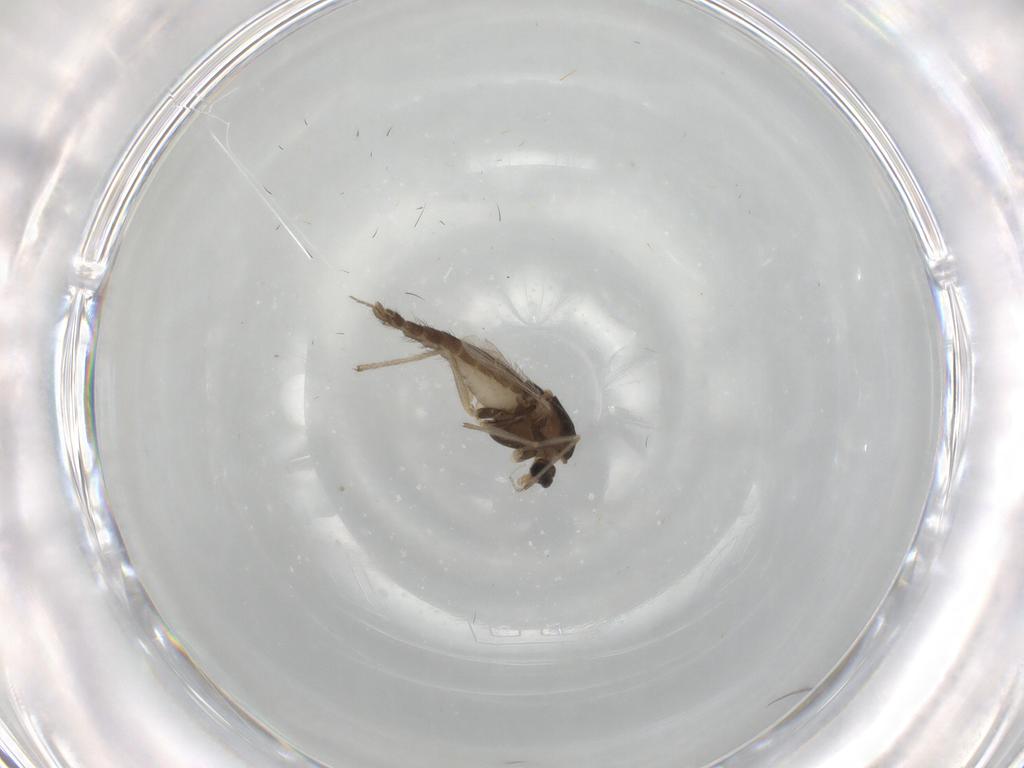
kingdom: Animalia
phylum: Arthropoda
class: Insecta
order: Diptera
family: Chironomidae
